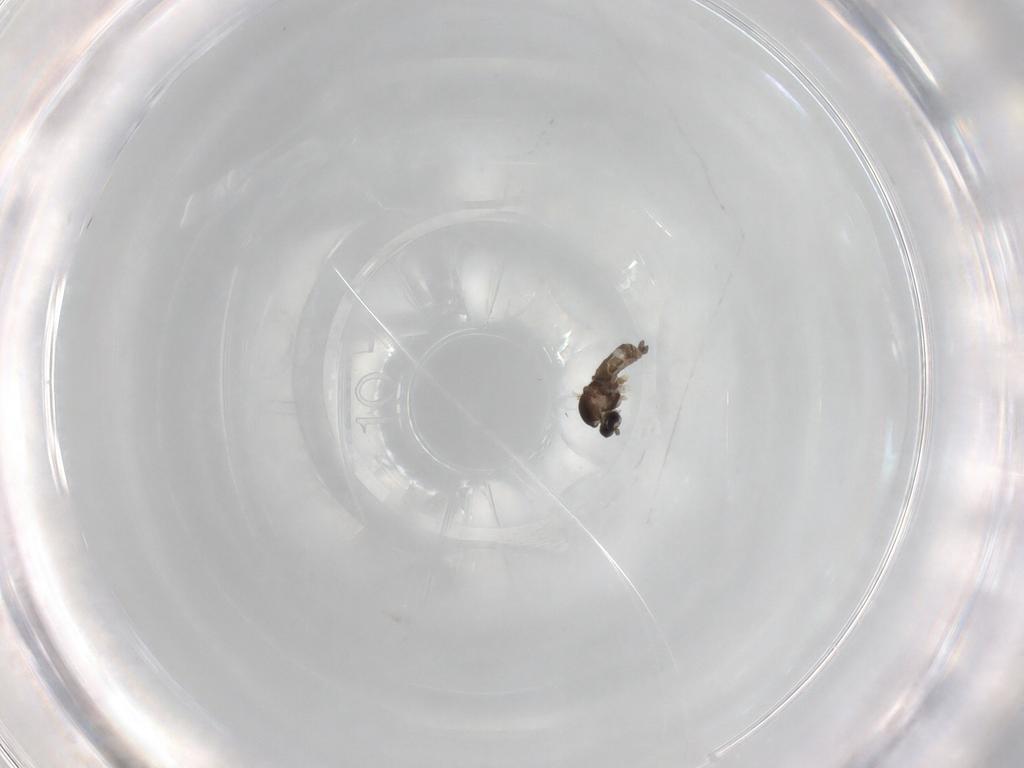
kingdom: Animalia
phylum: Arthropoda
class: Insecta
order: Diptera
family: Cecidomyiidae
